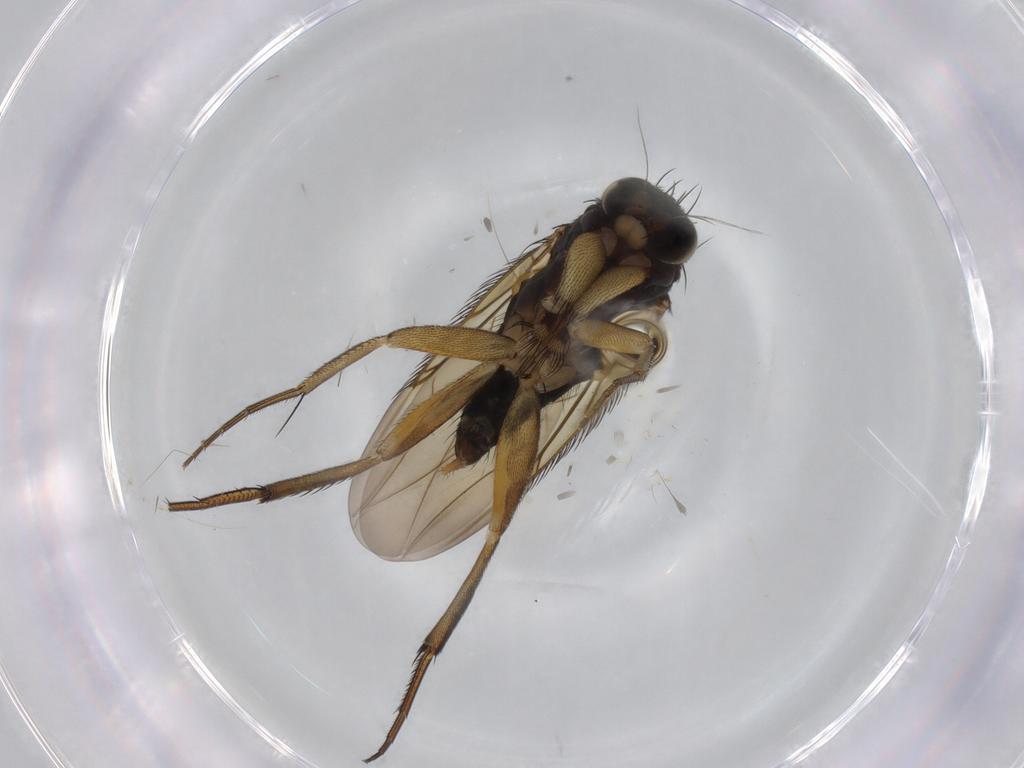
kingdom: Animalia
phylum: Arthropoda
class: Insecta
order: Diptera
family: Phoridae
